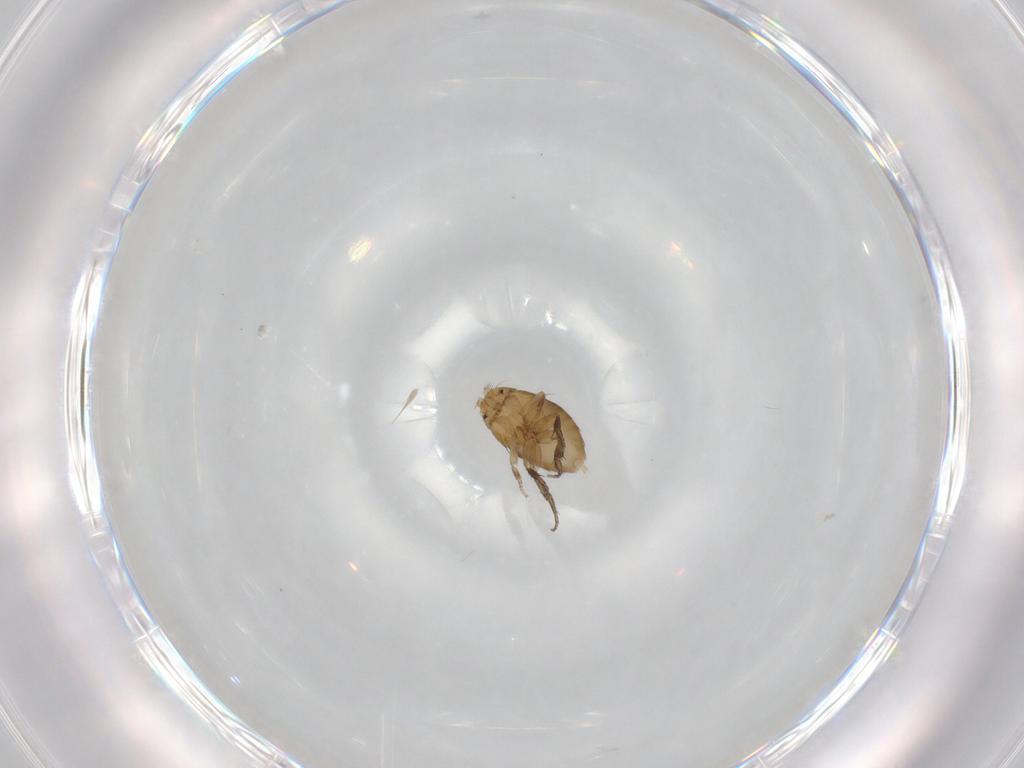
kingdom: Animalia
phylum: Arthropoda
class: Insecta
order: Diptera
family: Phoridae
